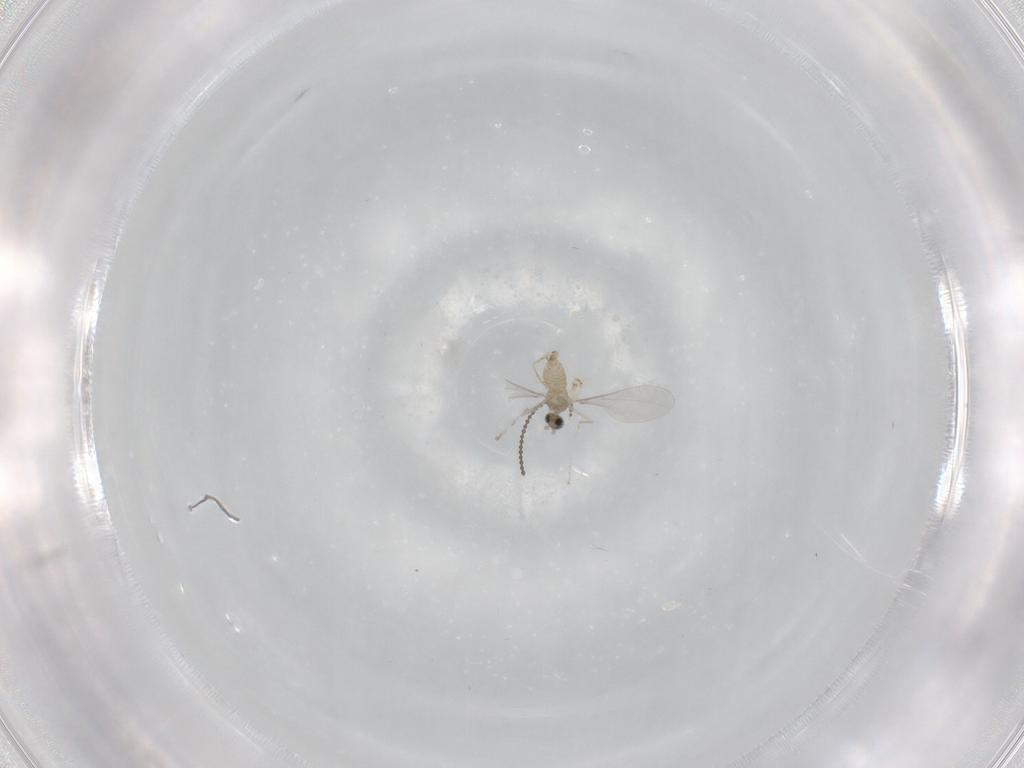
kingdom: Animalia
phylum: Arthropoda
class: Insecta
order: Diptera
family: Cecidomyiidae
